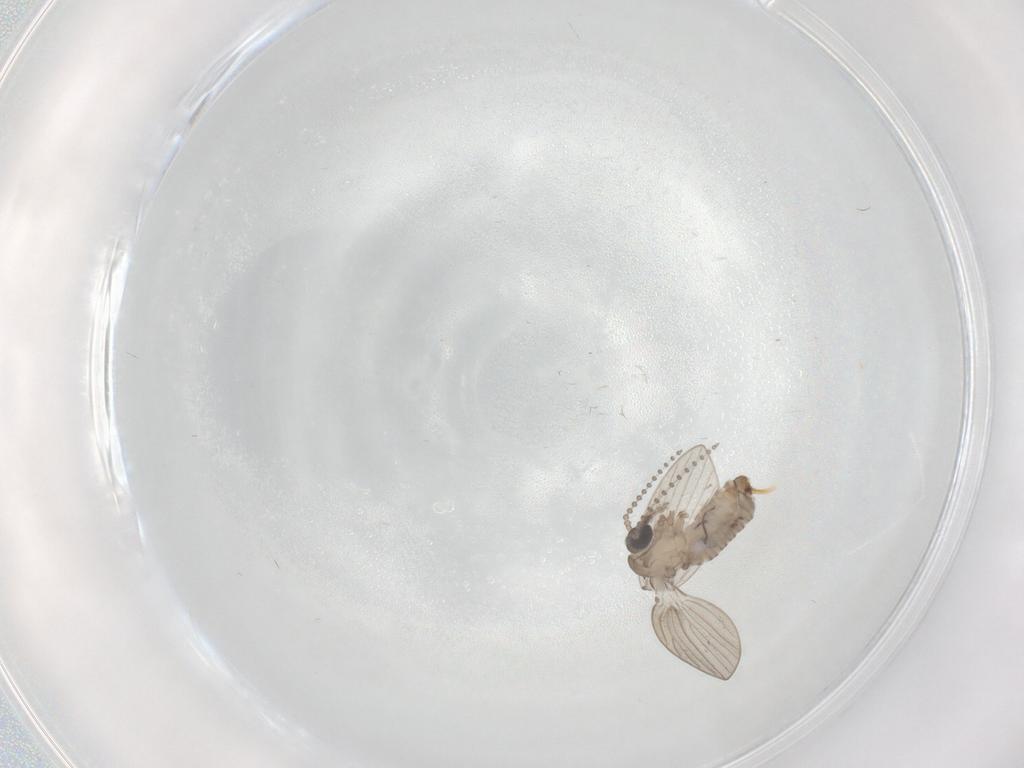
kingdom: Animalia
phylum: Arthropoda
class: Insecta
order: Diptera
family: Psychodidae
